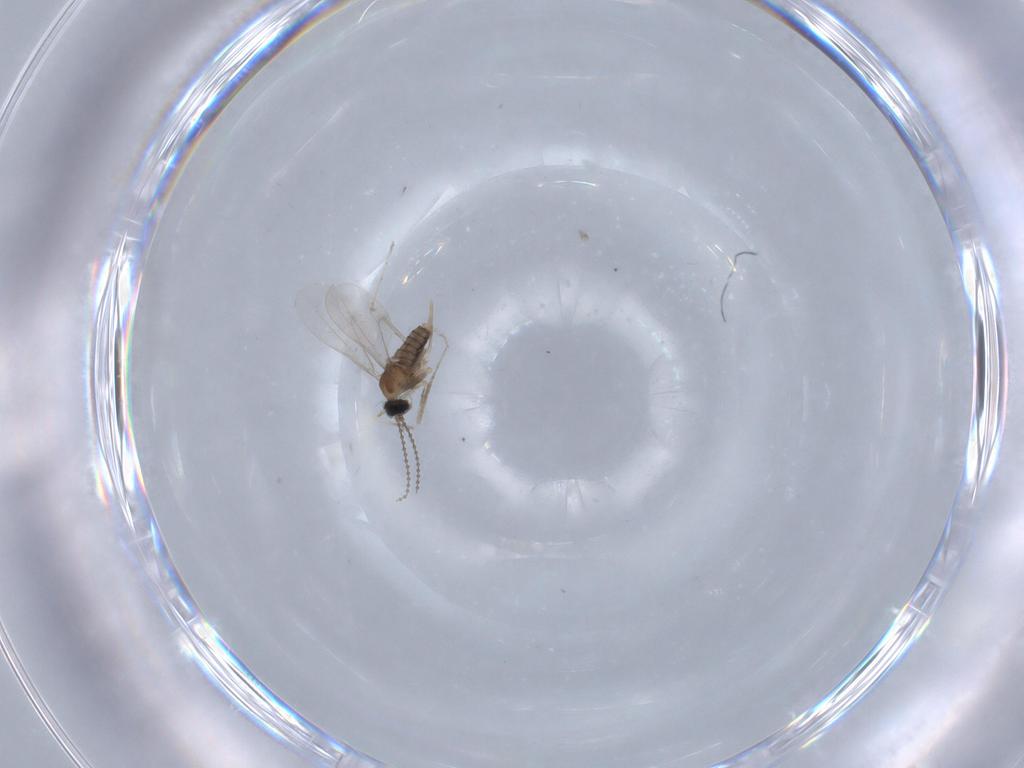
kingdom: Animalia
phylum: Arthropoda
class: Insecta
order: Diptera
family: Cecidomyiidae
